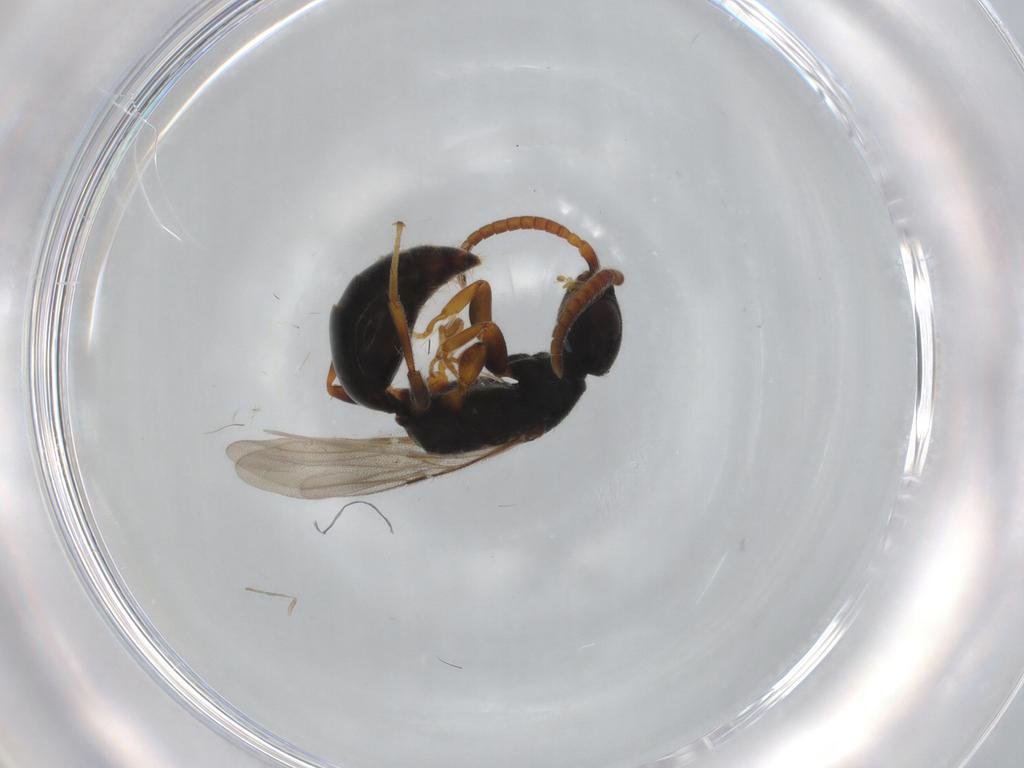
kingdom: Animalia
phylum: Arthropoda
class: Insecta
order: Hymenoptera
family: Bethylidae
